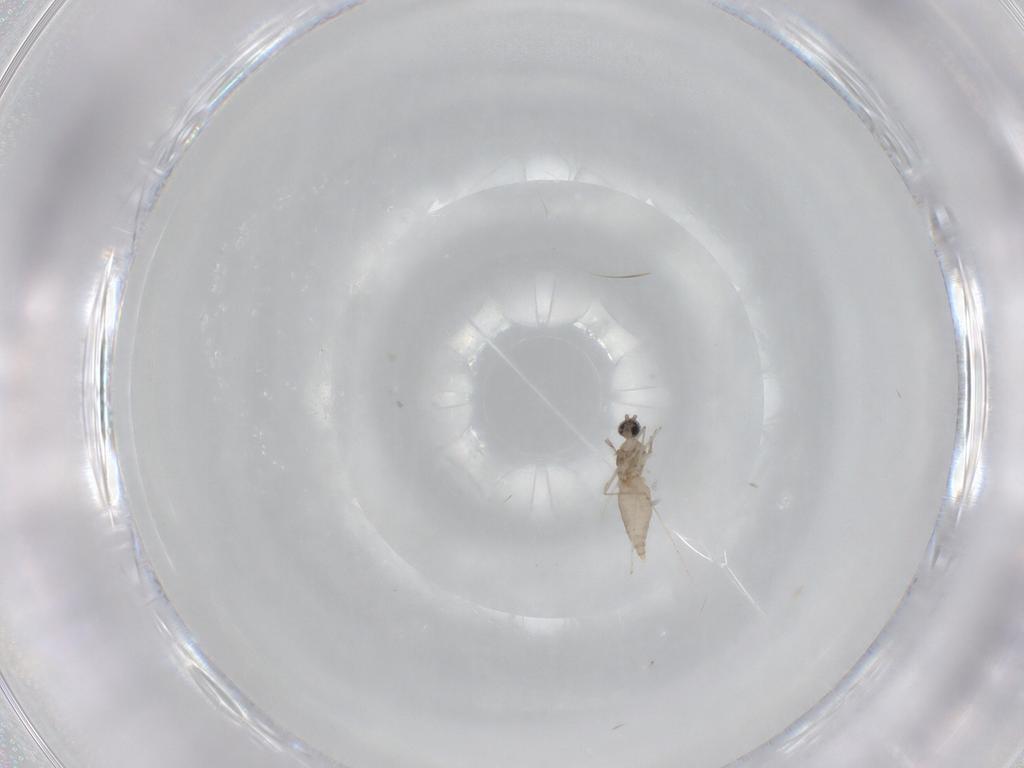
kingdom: Animalia
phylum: Arthropoda
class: Insecta
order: Diptera
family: Cecidomyiidae
